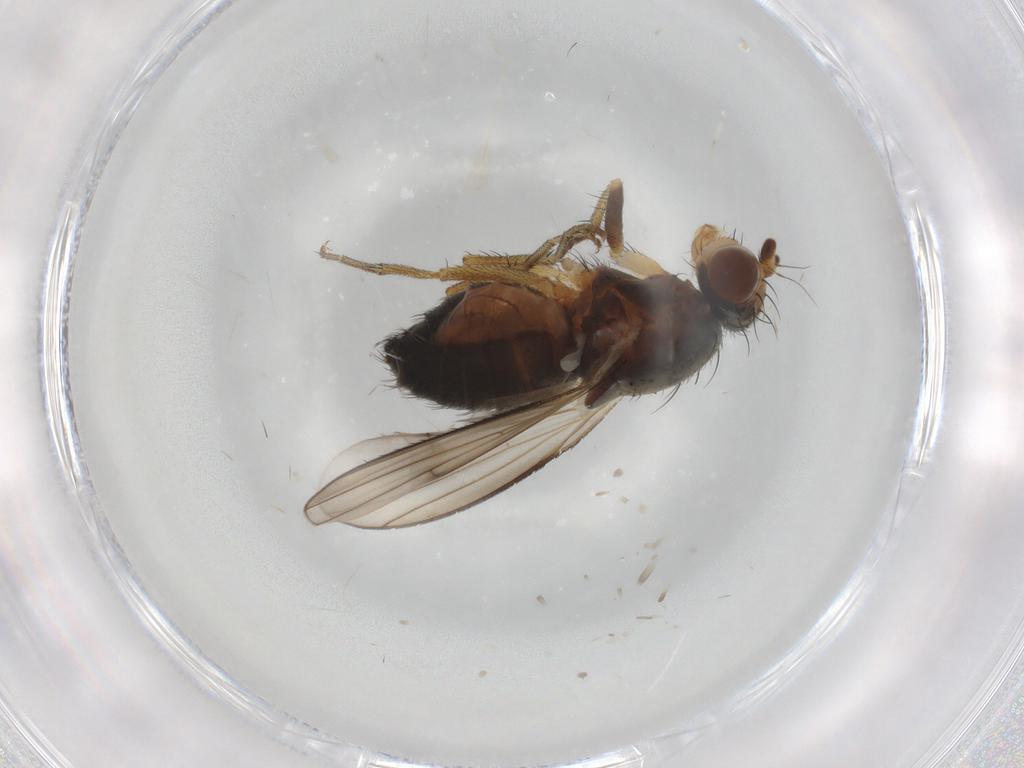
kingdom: Animalia
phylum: Arthropoda
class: Insecta
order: Diptera
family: Heleomyzidae
